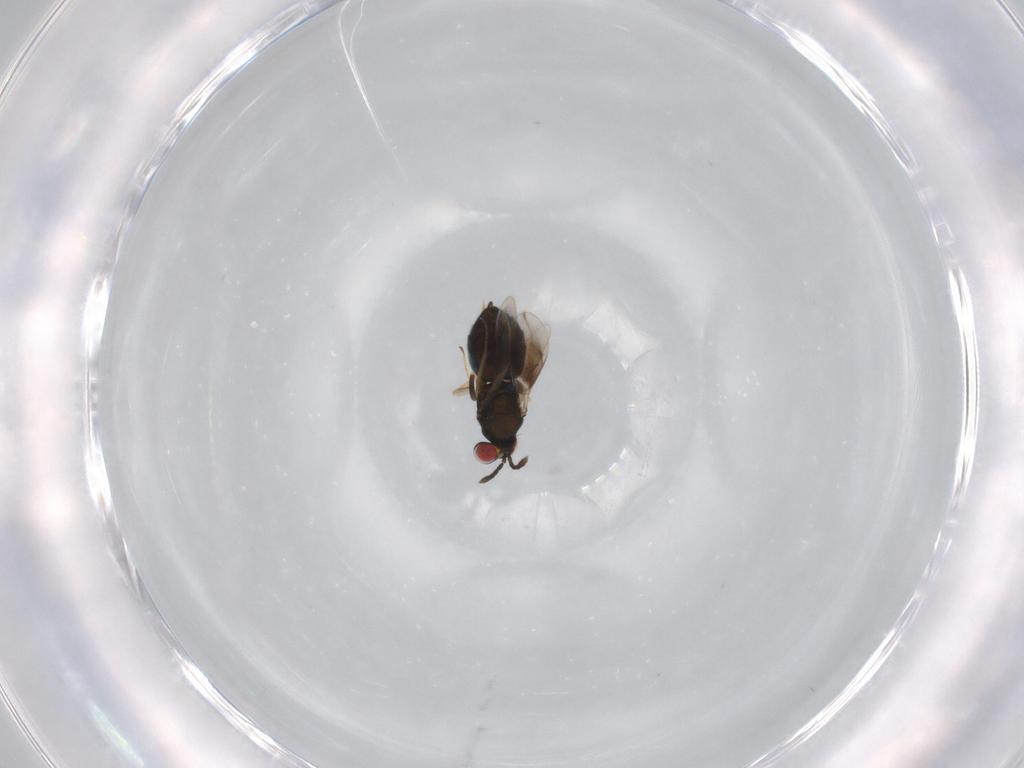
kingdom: Animalia
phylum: Arthropoda
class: Insecta
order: Hymenoptera
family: Eulophidae
